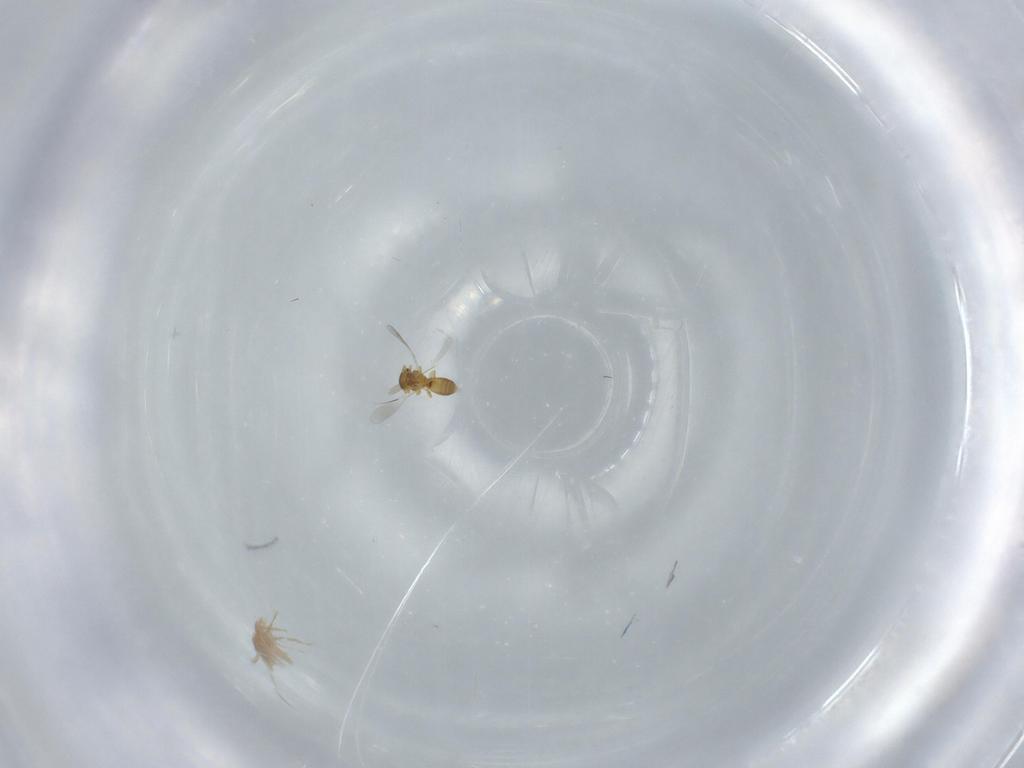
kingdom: Animalia
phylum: Arthropoda
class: Insecta
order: Hymenoptera
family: Platygastridae
